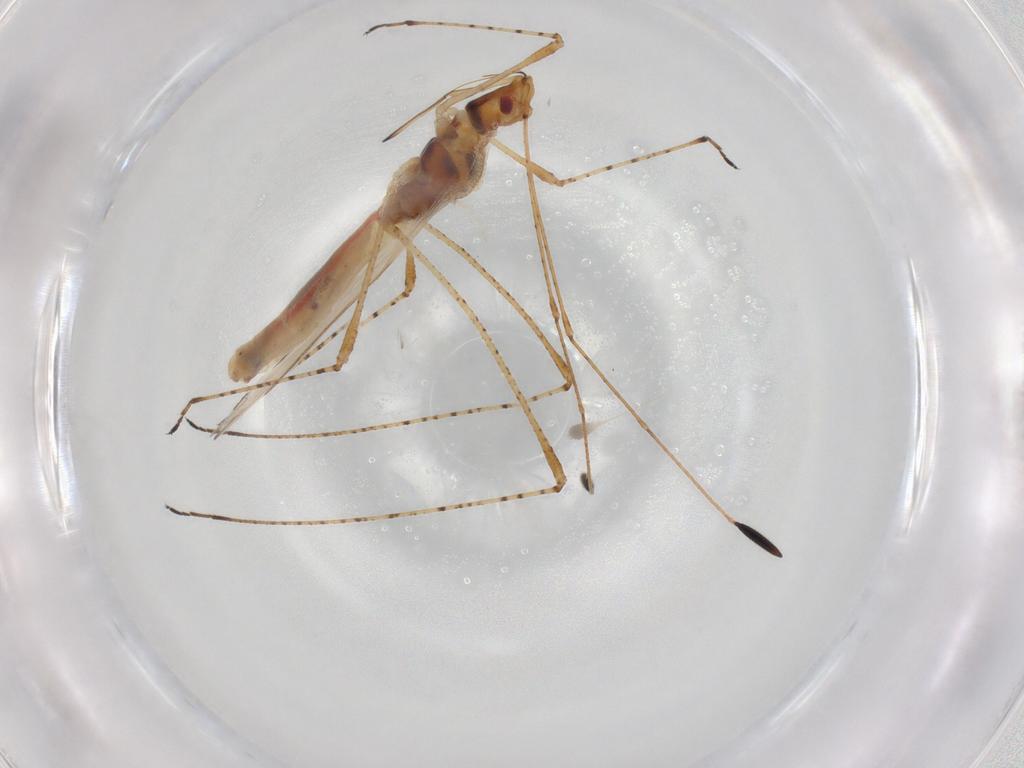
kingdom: Animalia
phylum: Arthropoda
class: Insecta
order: Hemiptera
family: Cymidae
